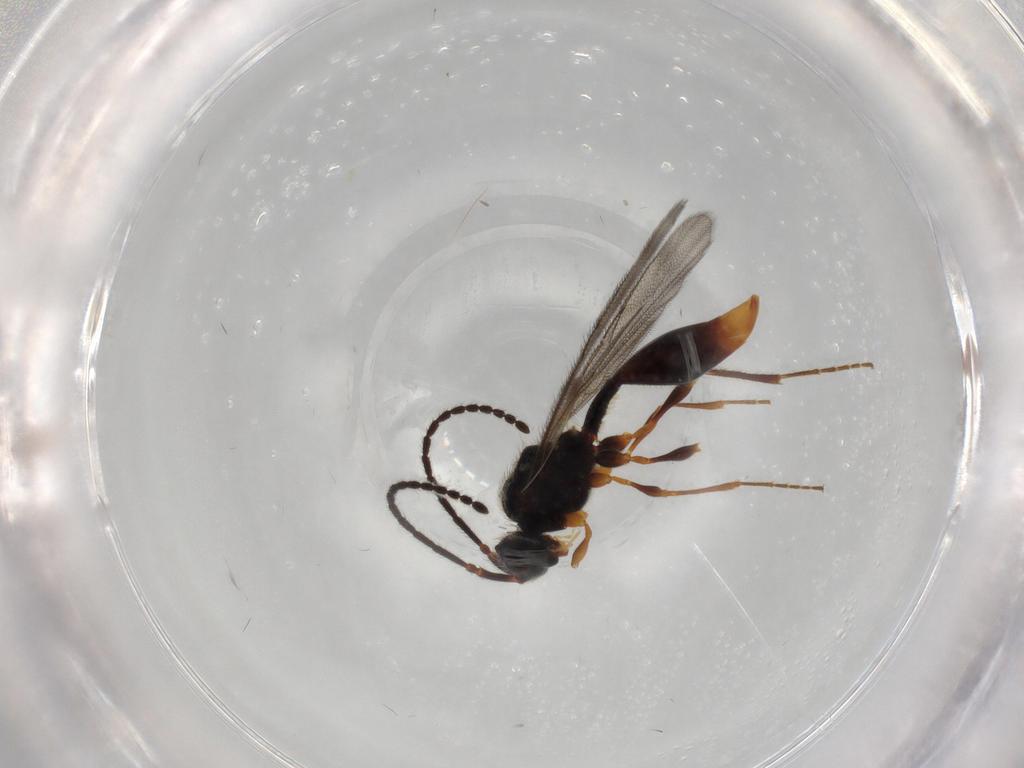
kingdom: Animalia
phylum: Arthropoda
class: Insecta
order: Hymenoptera
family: Diapriidae
